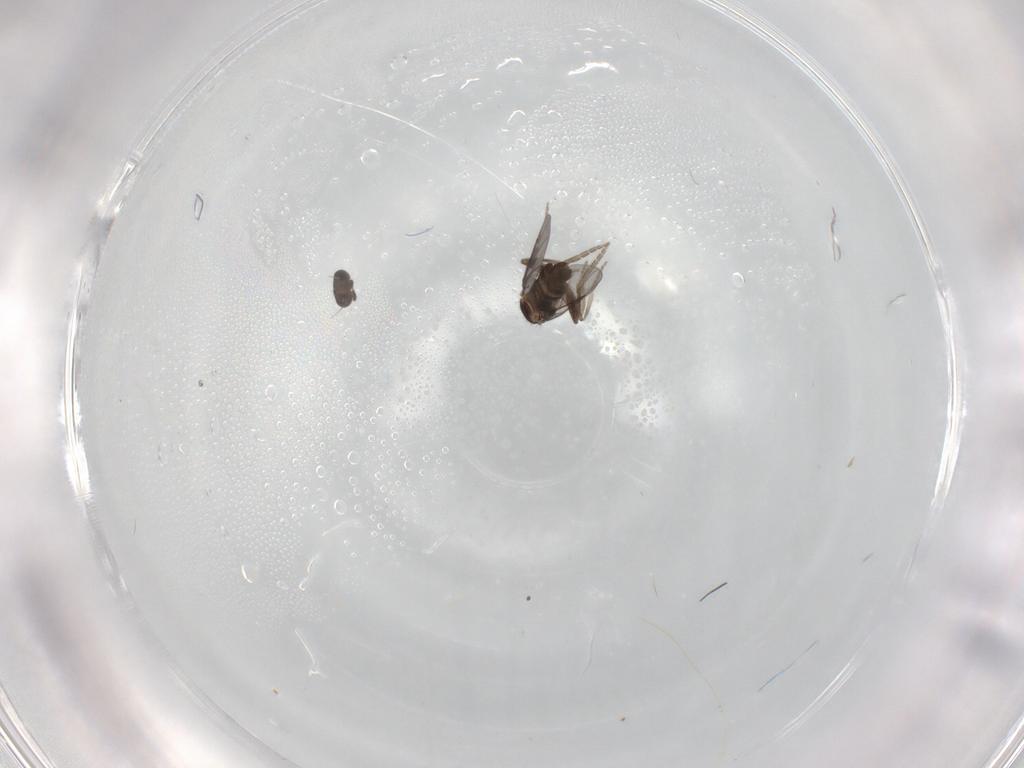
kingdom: Animalia
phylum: Arthropoda
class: Insecta
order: Diptera
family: Cecidomyiidae
